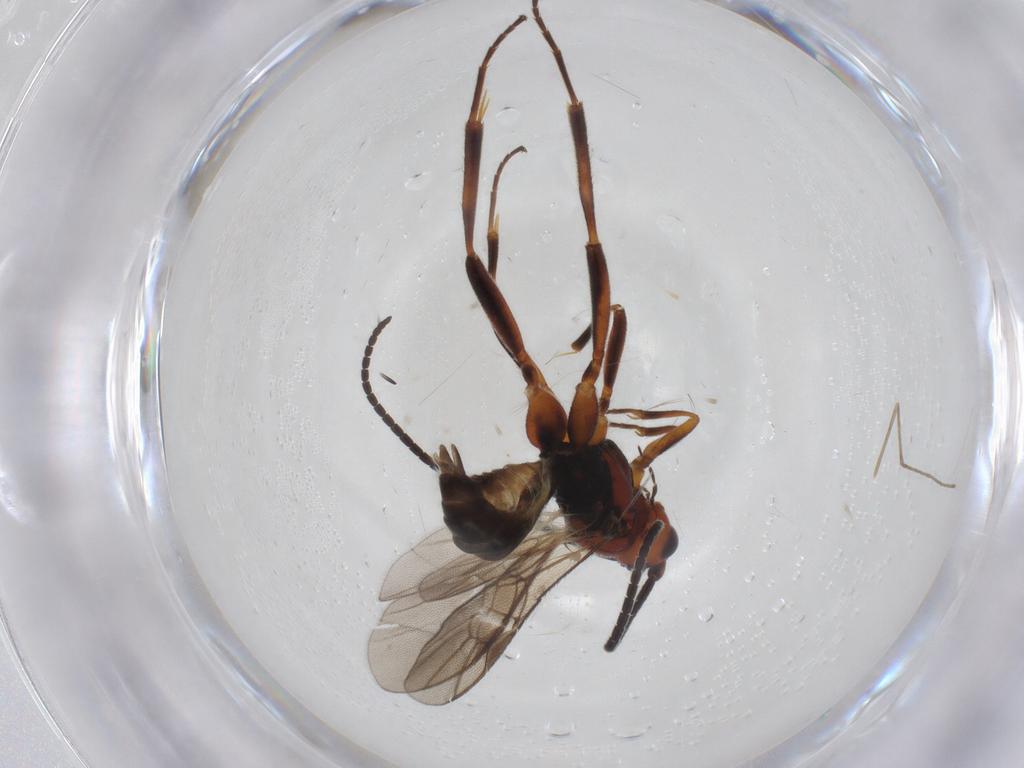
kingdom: Animalia
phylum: Arthropoda
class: Insecta
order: Hymenoptera
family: Braconidae
